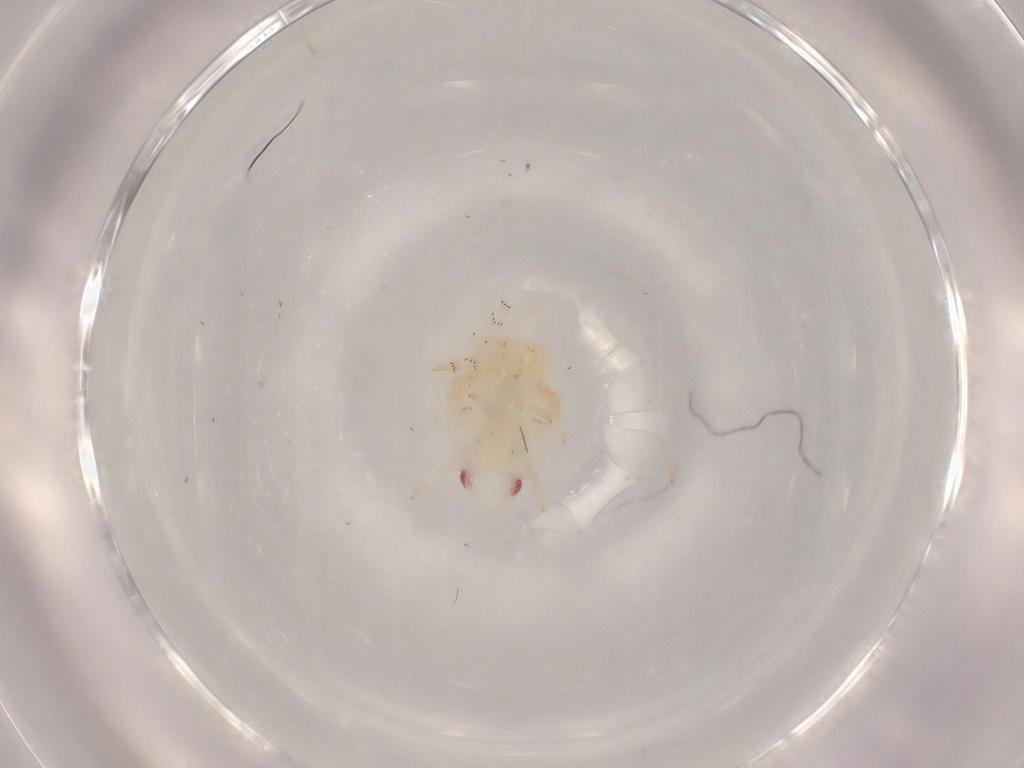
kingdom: Animalia
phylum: Arthropoda
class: Insecta
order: Hemiptera
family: Flatidae
